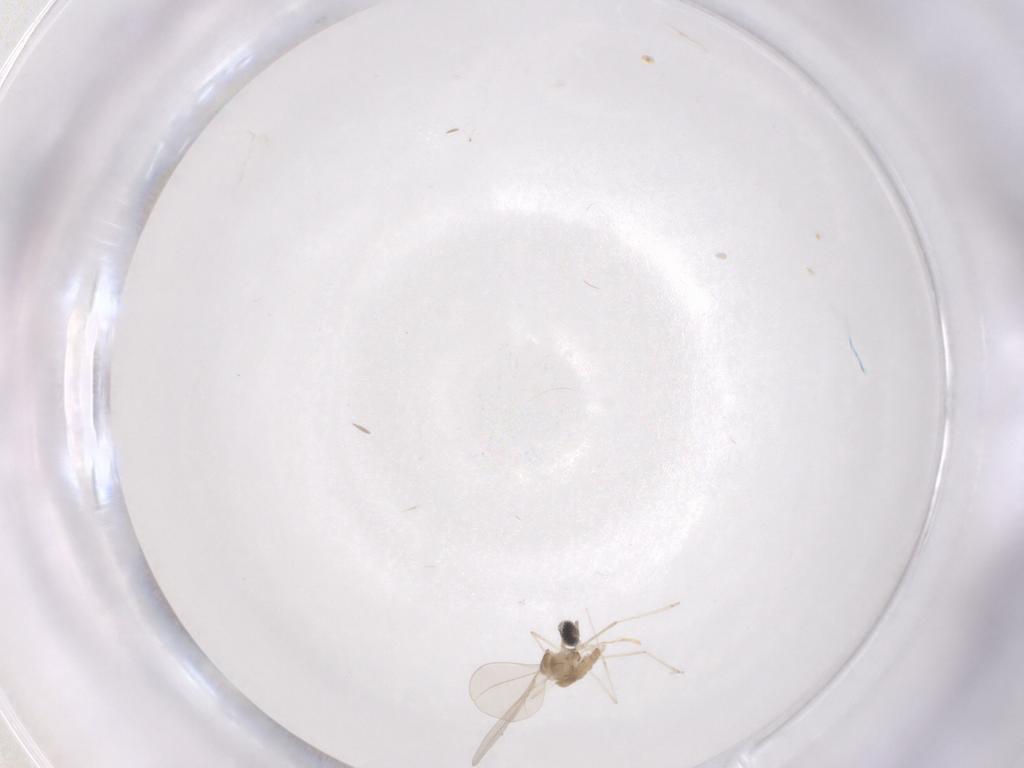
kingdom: Animalia
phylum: Arthropoda
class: Insecta
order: Diptera
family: Cecidomyiidae
